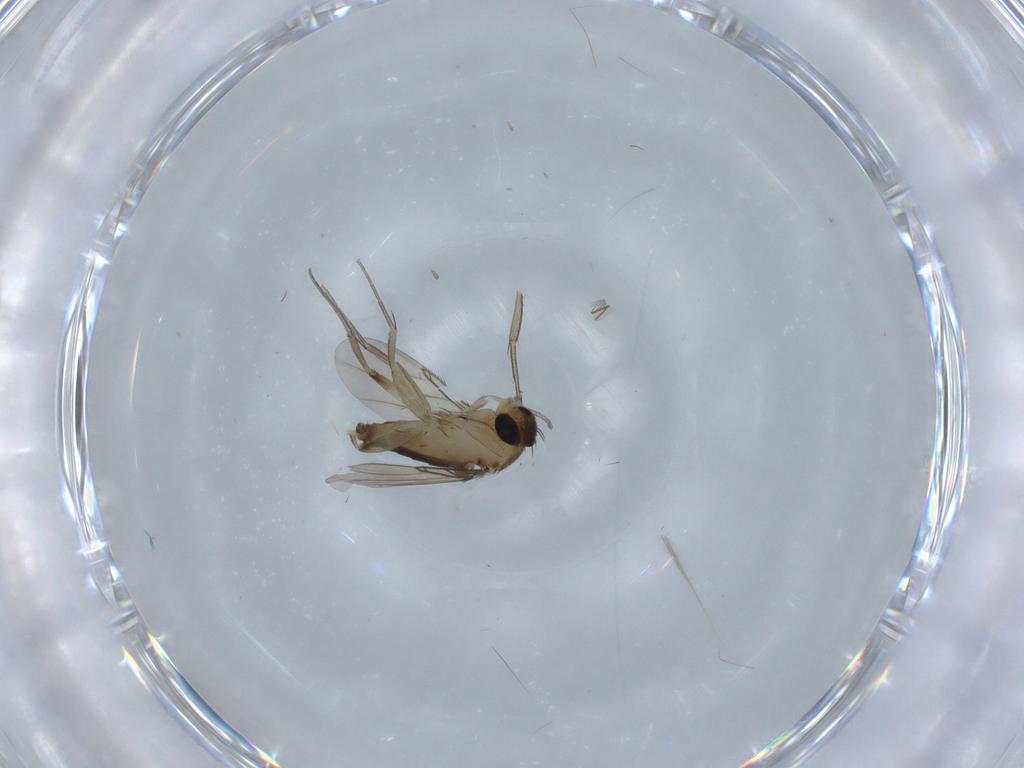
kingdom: Animalia
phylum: Arthropoda
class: Insecta
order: Diptera
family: Phoridae
